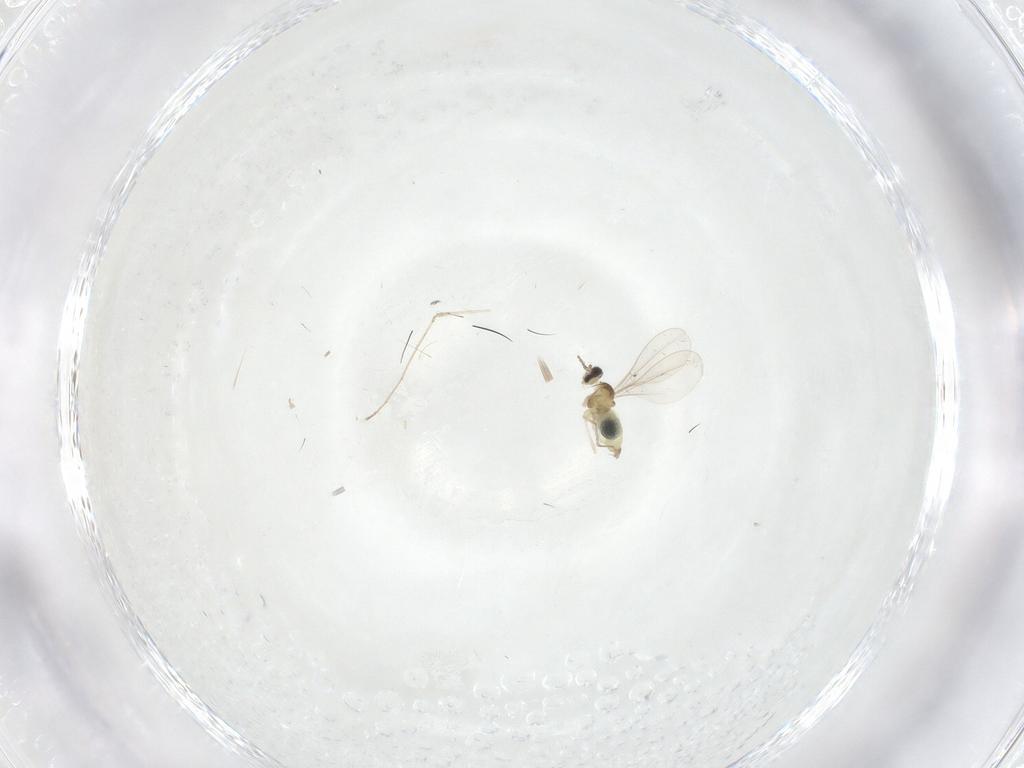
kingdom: Animalia
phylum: Arthropoda
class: Insecta
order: Diptera
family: Cecidomyiidae
